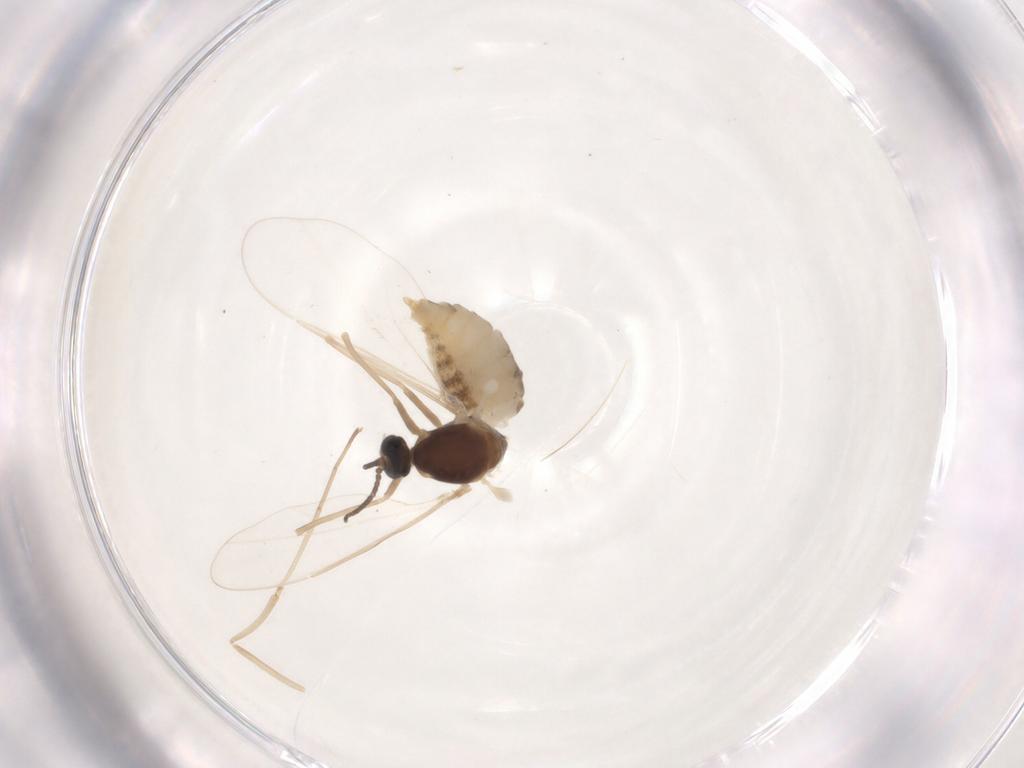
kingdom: Animalia
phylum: Arthropoda
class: Insecta
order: Diptera
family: Cecidomyiidae
